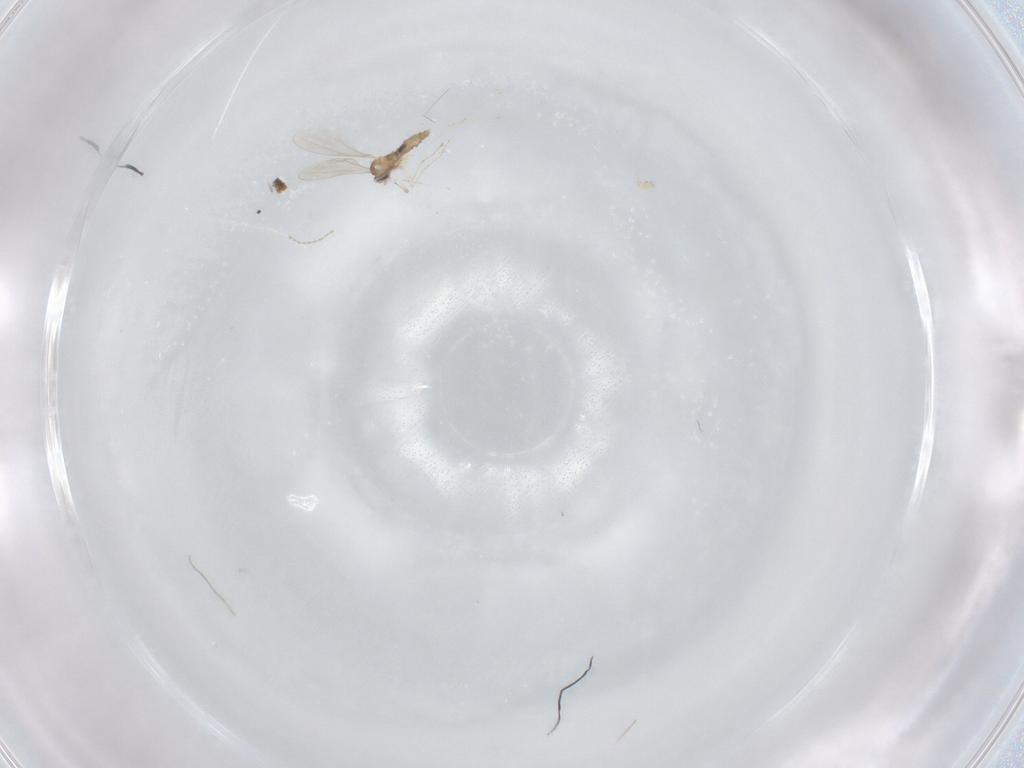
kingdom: Animalia
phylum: Arthropoda
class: Insecta
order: Diptera
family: Cecidomyiidae
